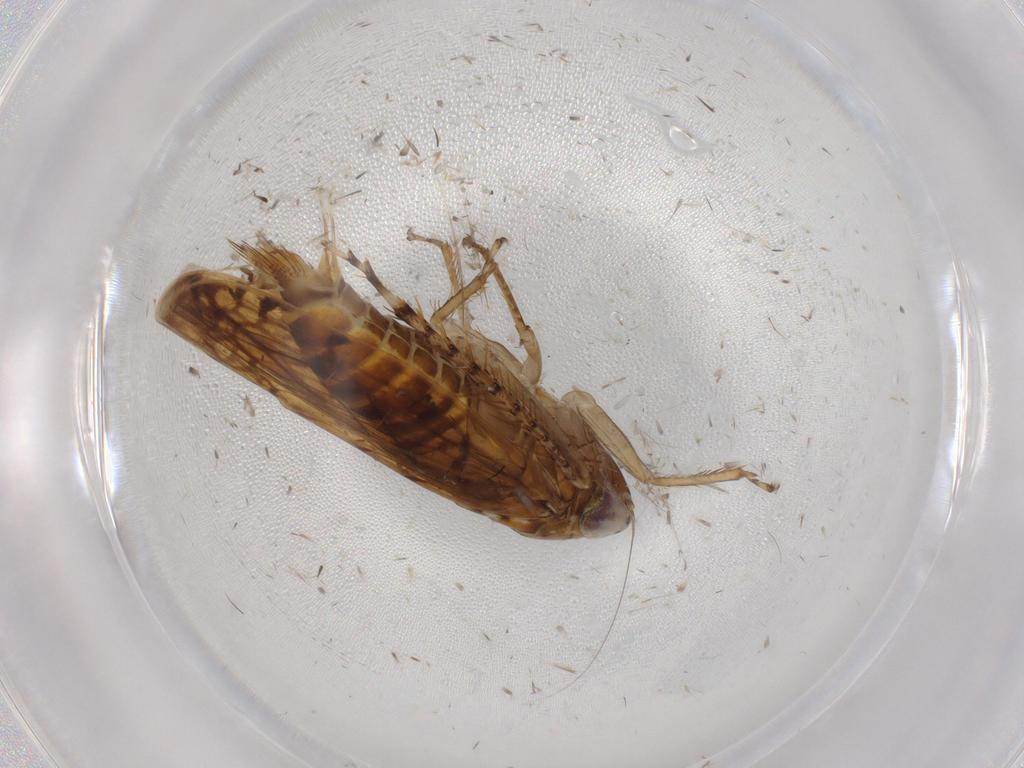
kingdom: Animalia
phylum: Arthropoda
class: Insecta
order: Hemiptera
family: Cicadellidae
